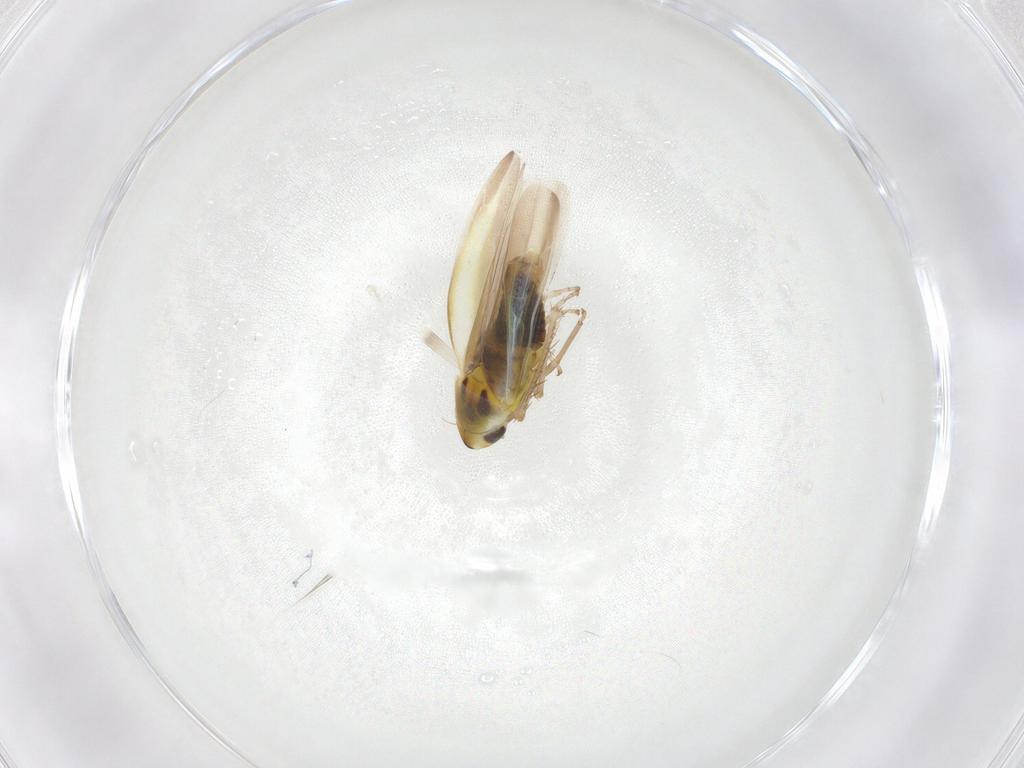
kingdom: Animalia
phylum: Arthropoda
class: Insecta
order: Hemiptera
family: Cicadellidae
